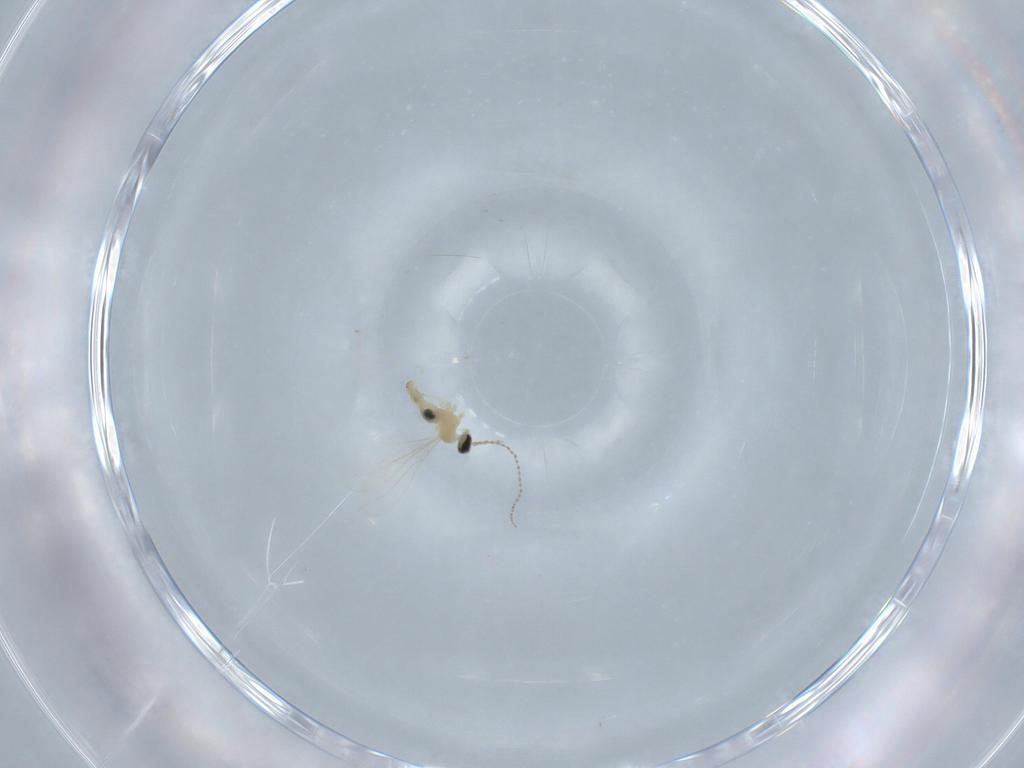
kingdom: Animalia
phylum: Arthropoda
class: Insecta
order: Diptera
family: Cecidomyiidae
